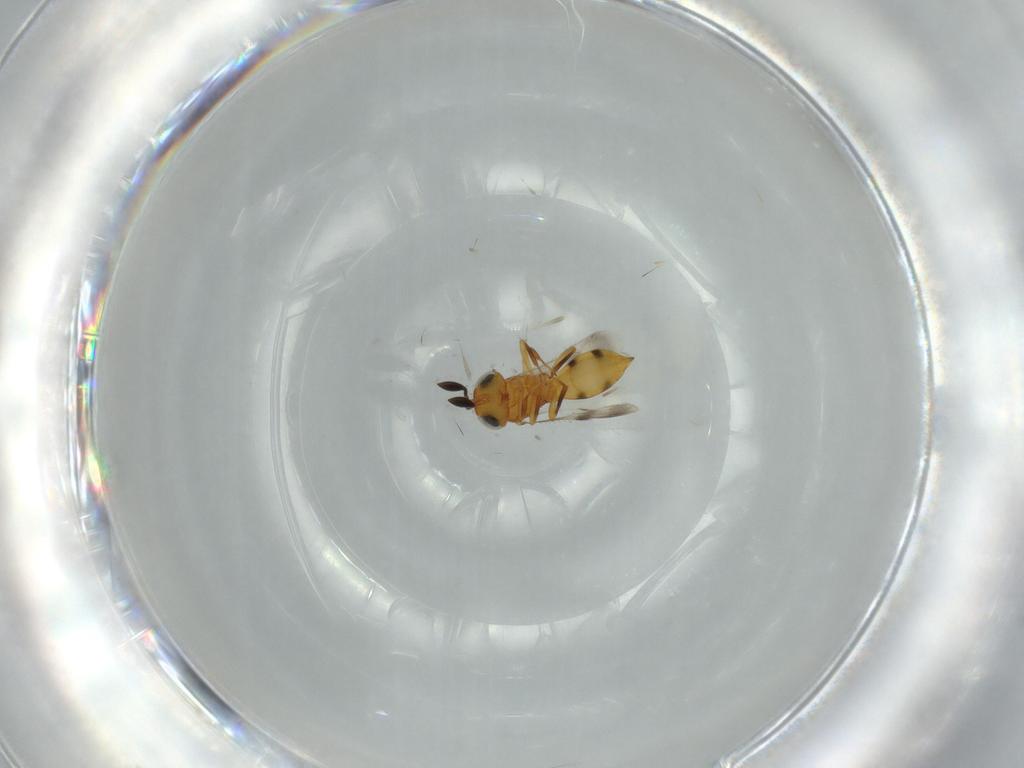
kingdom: Animalia
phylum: Arthropoda
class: Insecta
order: Hymenoptera
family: Scelionidae
